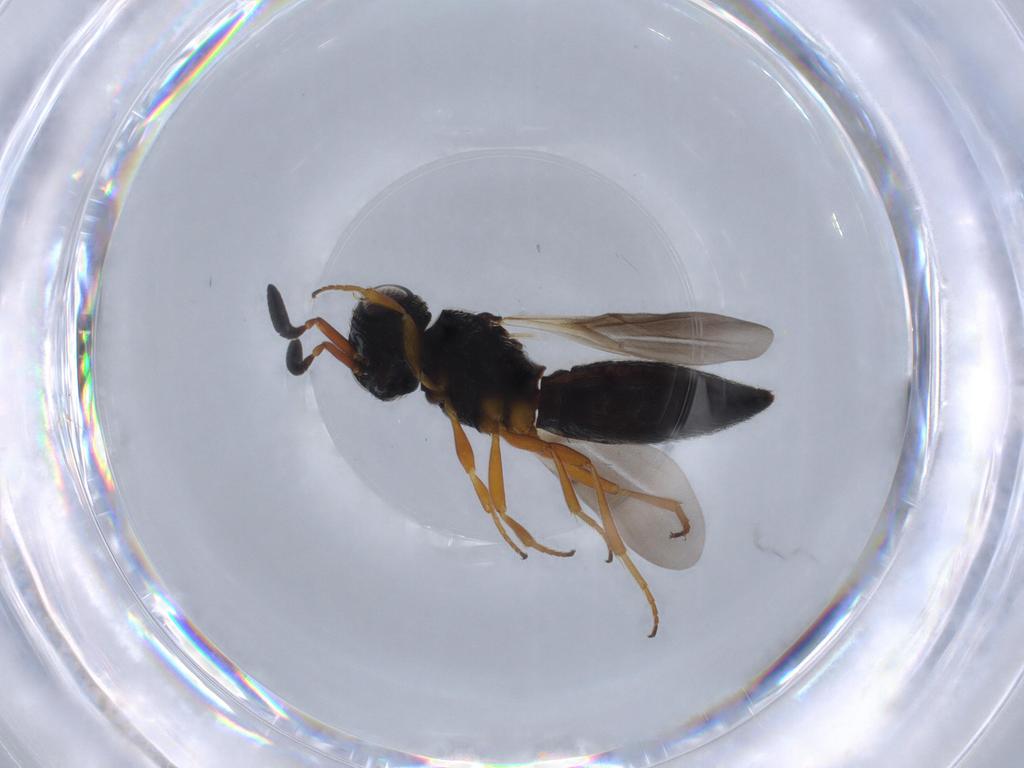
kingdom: Animalia
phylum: Arthropoda
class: Insecta
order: Hymenoptera
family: Scelionidae
